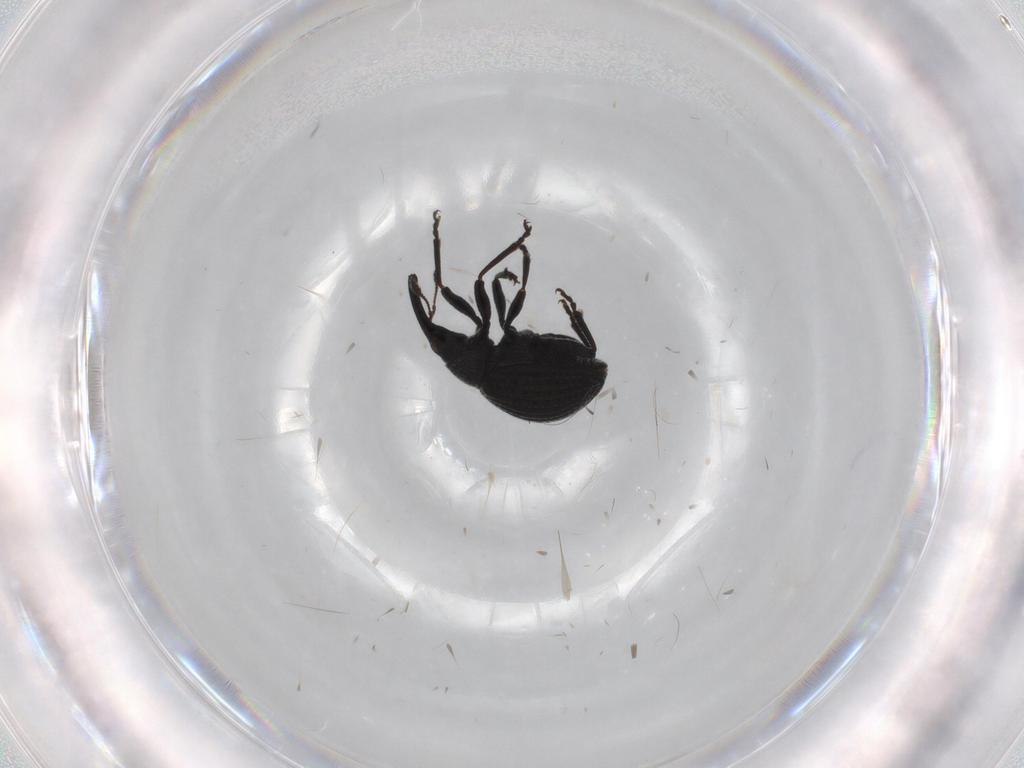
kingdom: Animalia
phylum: Arthropoda
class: Insecta
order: Coleoptera
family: Brentidae
